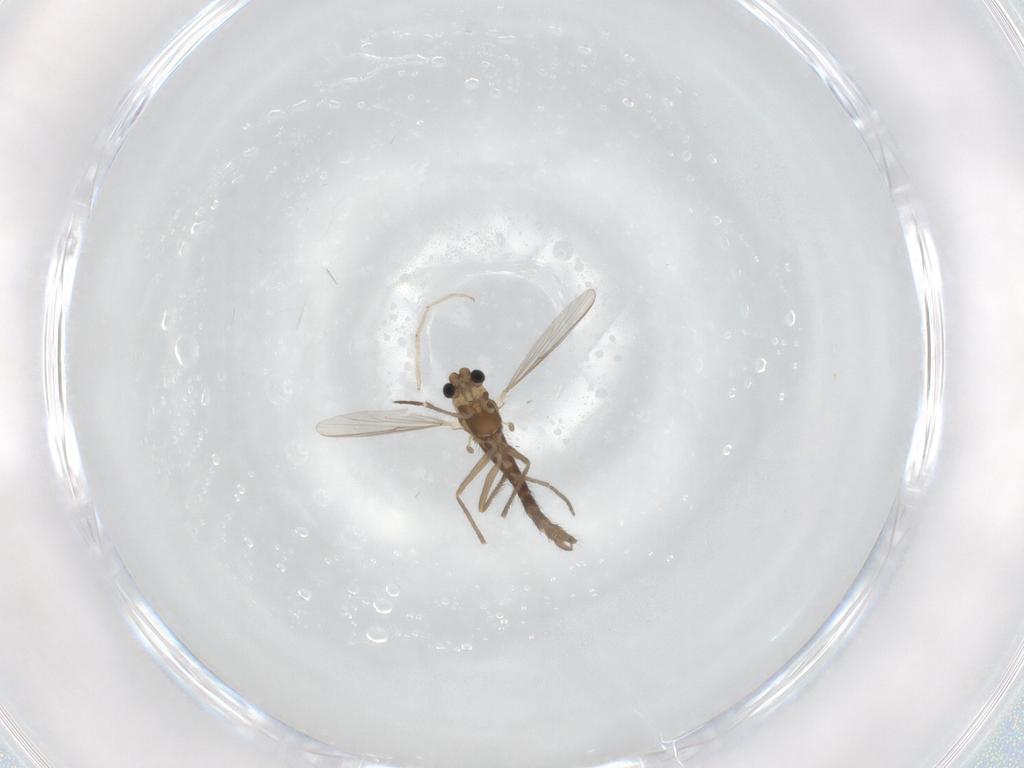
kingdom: Animalia
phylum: Arthropoda
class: Insecta
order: Diptera
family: Chironomidae
